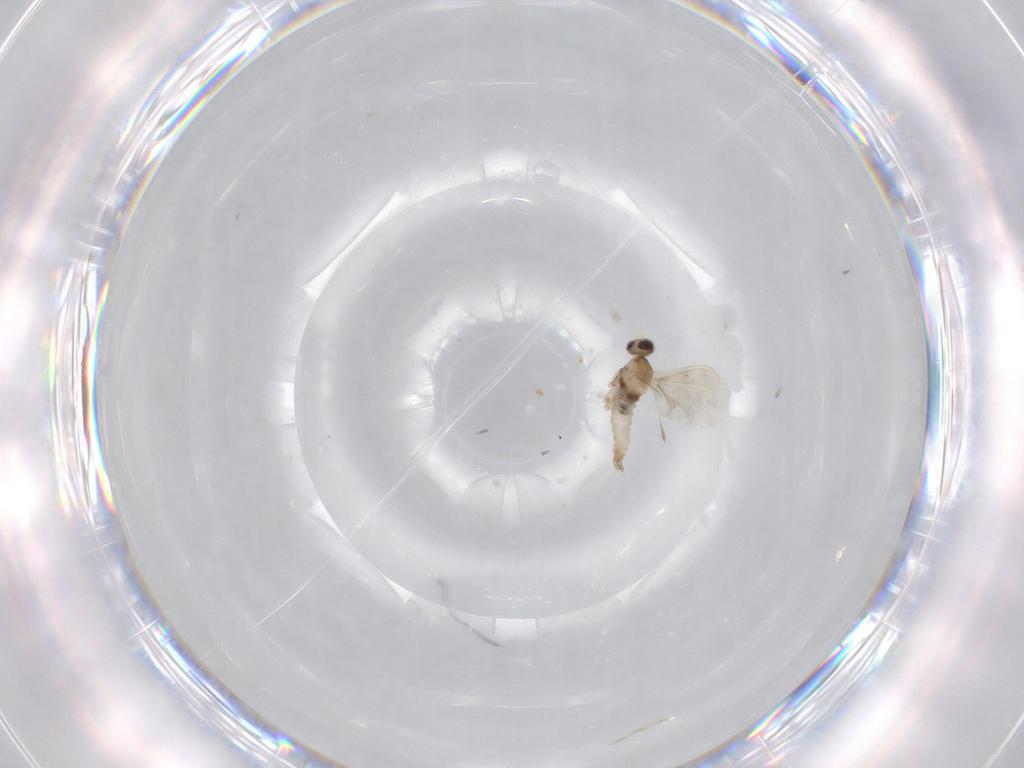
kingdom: Animalia
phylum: Arthropoda
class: Insecta
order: Diptera
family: Cecidomyiidae
